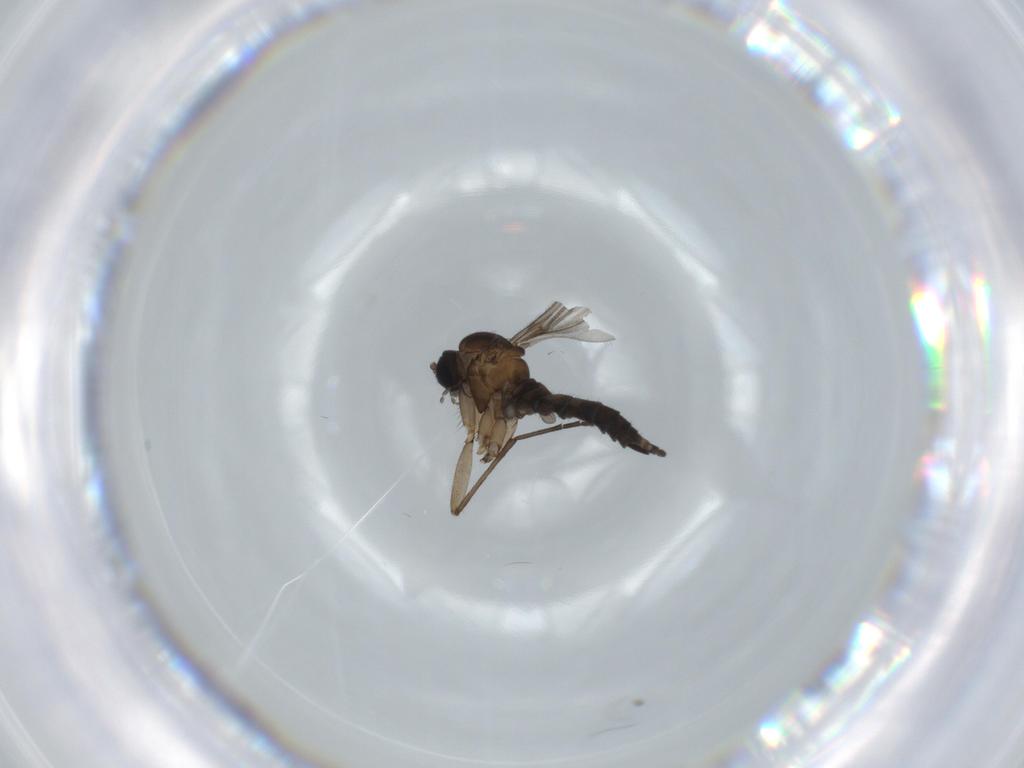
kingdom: Animalia
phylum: Arthropoda
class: Insecta
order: Diptera
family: Sciaridae
